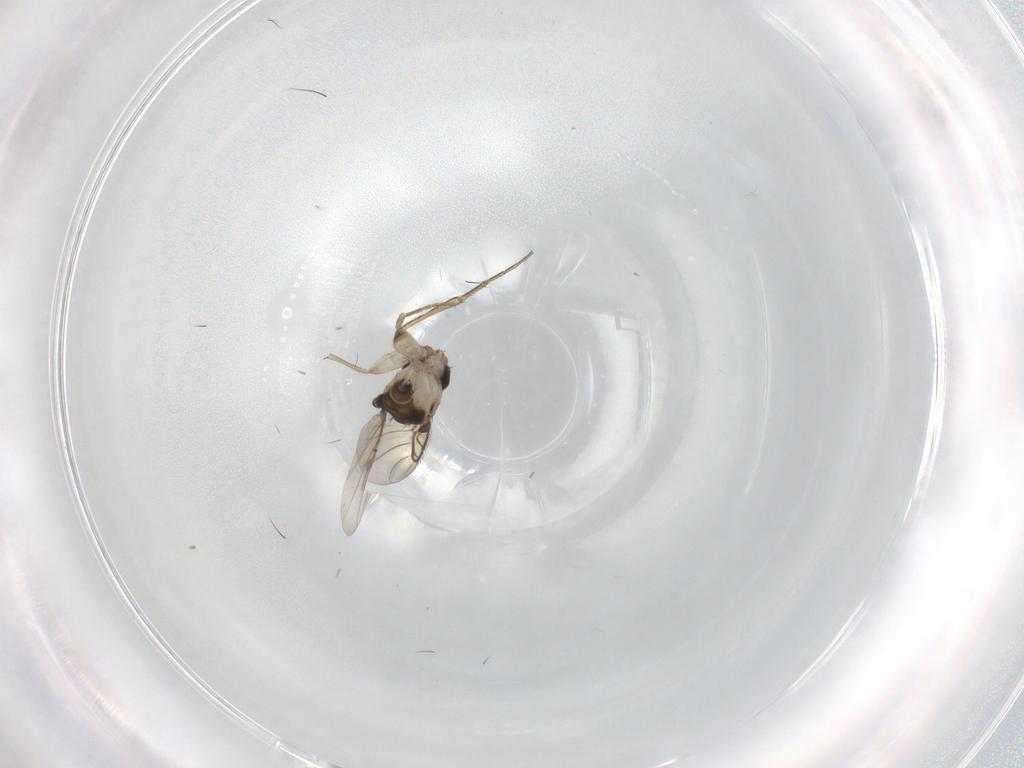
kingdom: Animalia
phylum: Arthropoda
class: Insecta
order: Diptera
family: Phoridae
